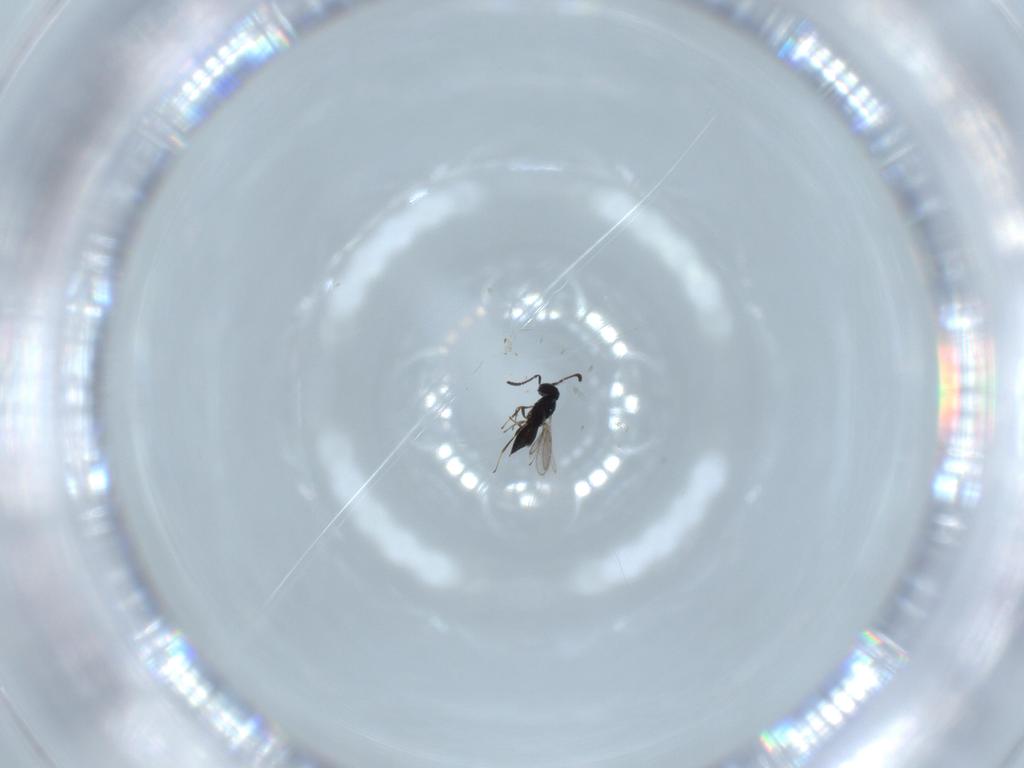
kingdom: Animalia
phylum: Arthropoda
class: Insecta
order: Hymenoptera
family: Scelionidae
